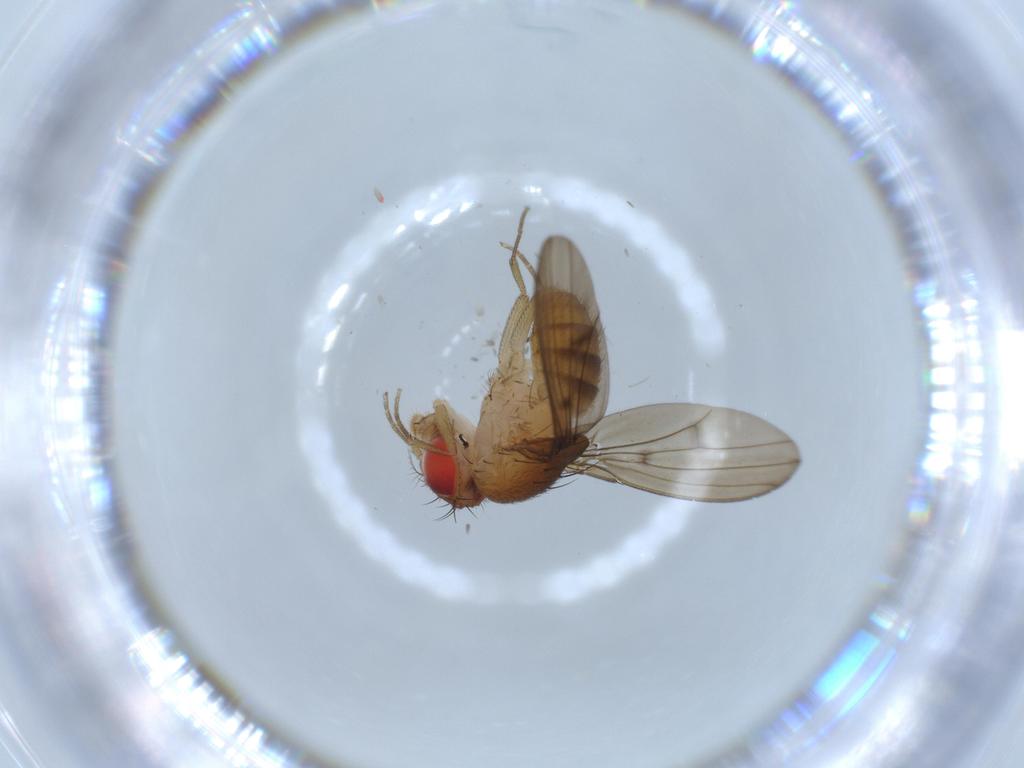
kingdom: Animalia
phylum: Arthropoda
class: Insecta
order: Diptera
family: Drosophilidae
